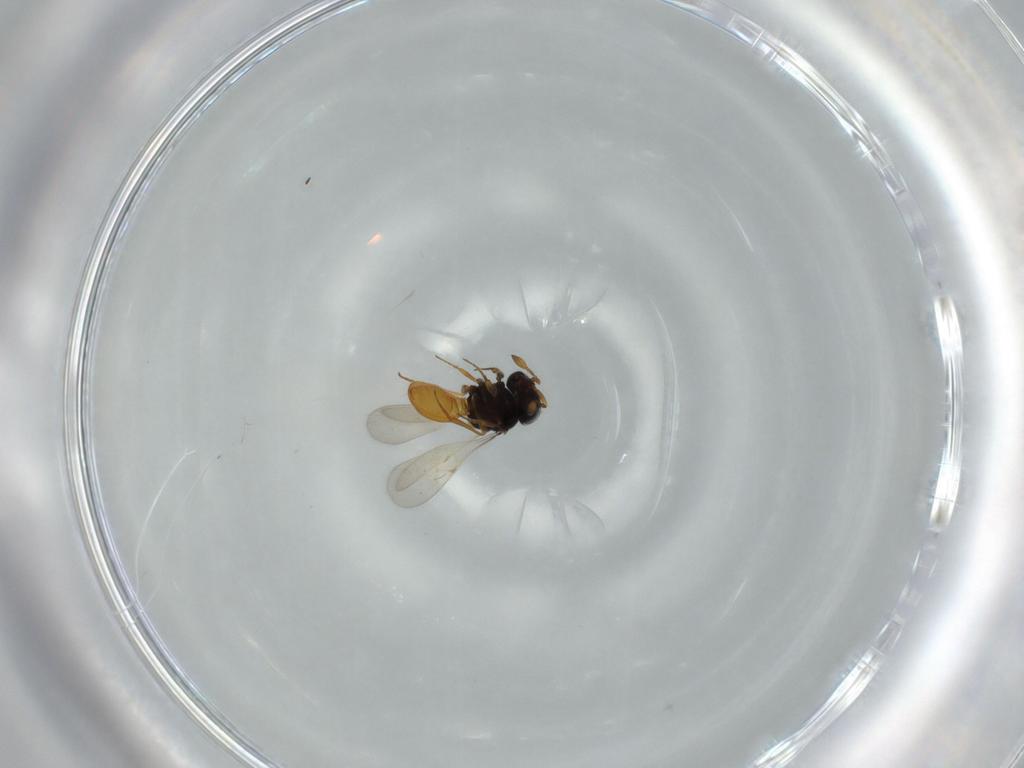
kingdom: Animalia
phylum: Arthropoda
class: Insecta
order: Hymenoptera
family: Scelionidae
